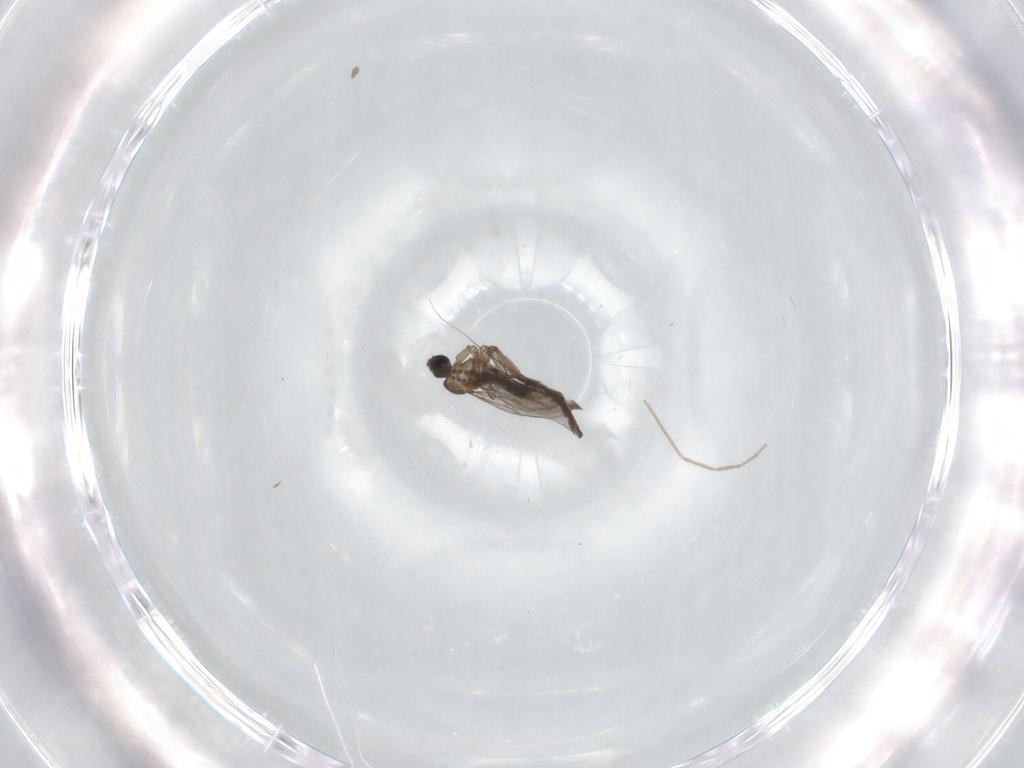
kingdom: Animalia
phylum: Arthropoda
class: Insecta
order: Diptera
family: Chironomidae
